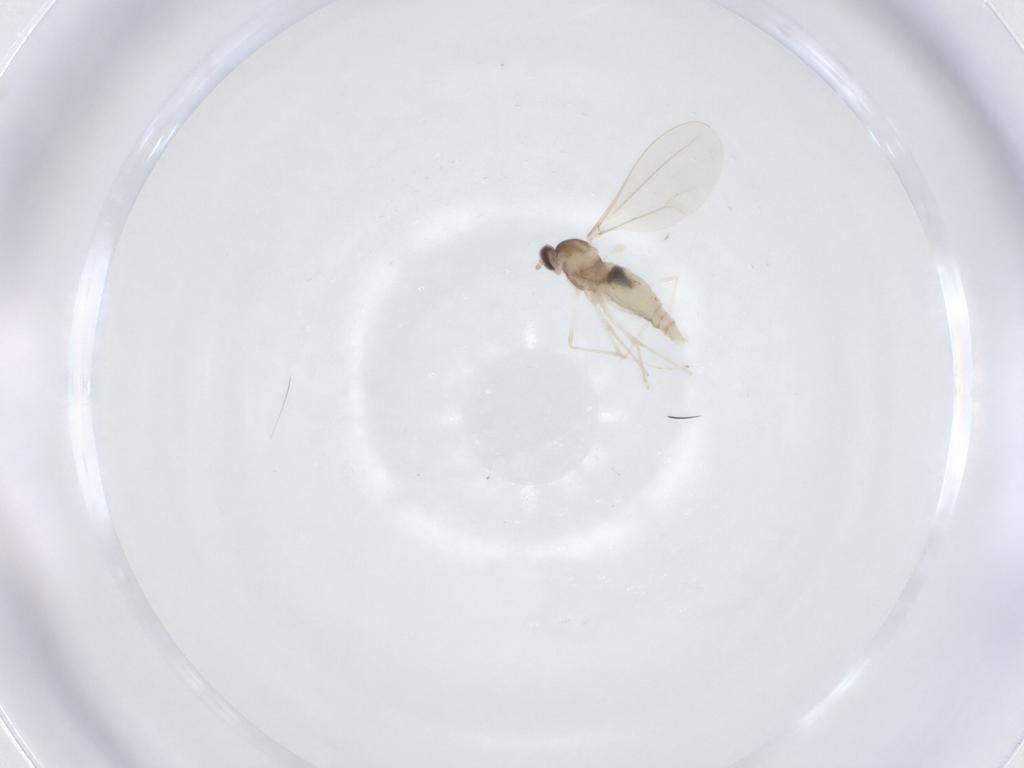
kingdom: Animalia
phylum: Arthropoda
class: Insecta
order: Diptera
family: Cecidomyiidae
